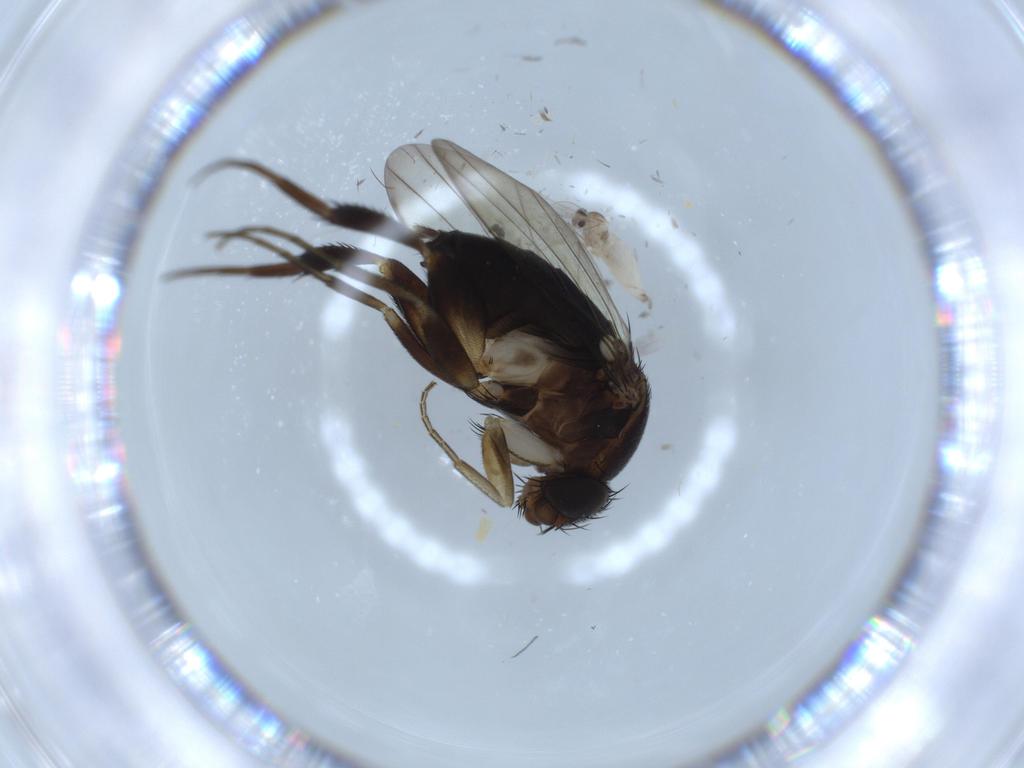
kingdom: Animalia
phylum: Arthropoda
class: Insecta
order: Diptera
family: Phoridae
